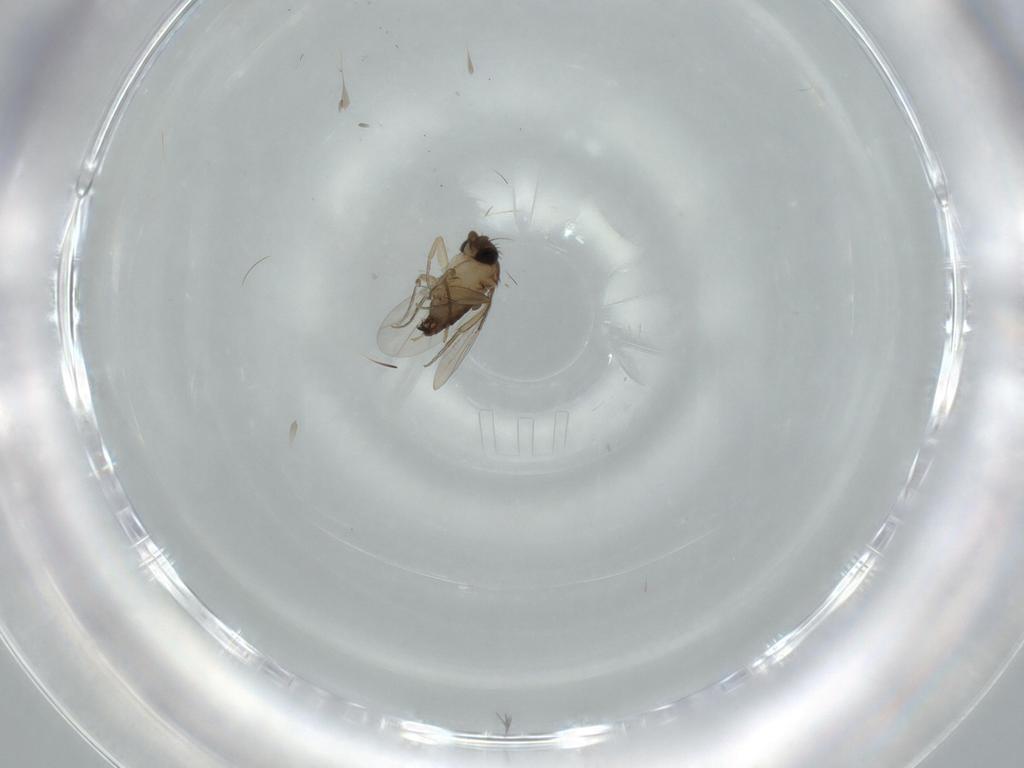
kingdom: Animalia
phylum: Arthropoda
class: Insecta
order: Diptera
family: Phoridae
